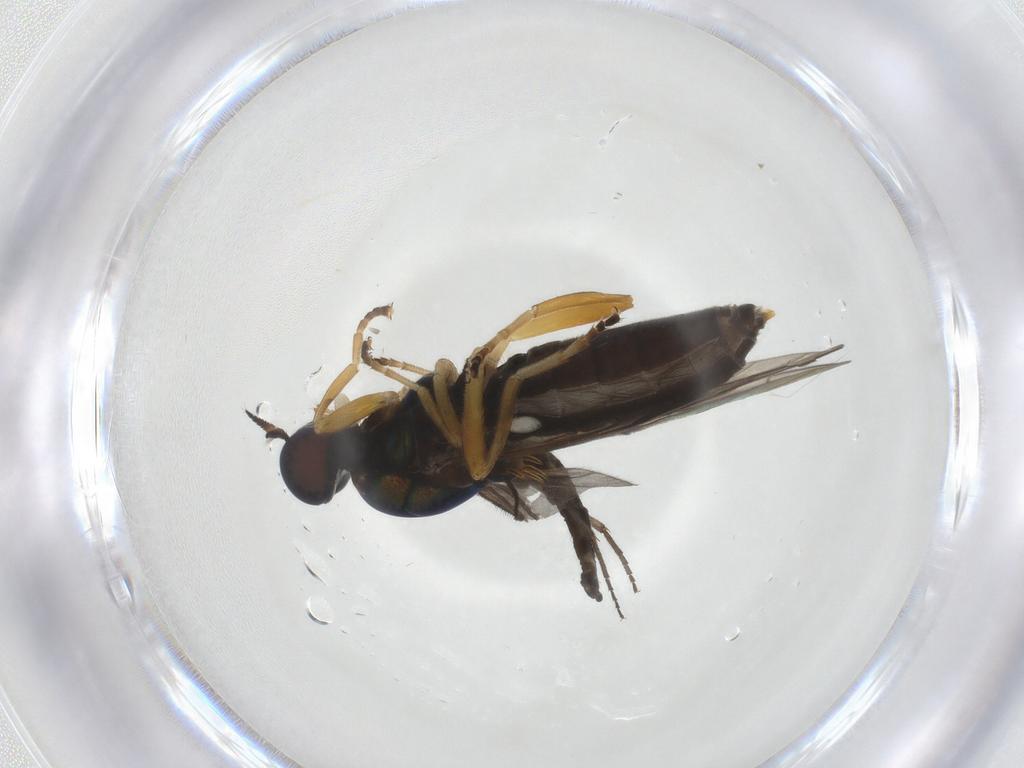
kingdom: Animalia
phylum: Arthropoda
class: Insecta
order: Diptera
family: Stratiomyidae
